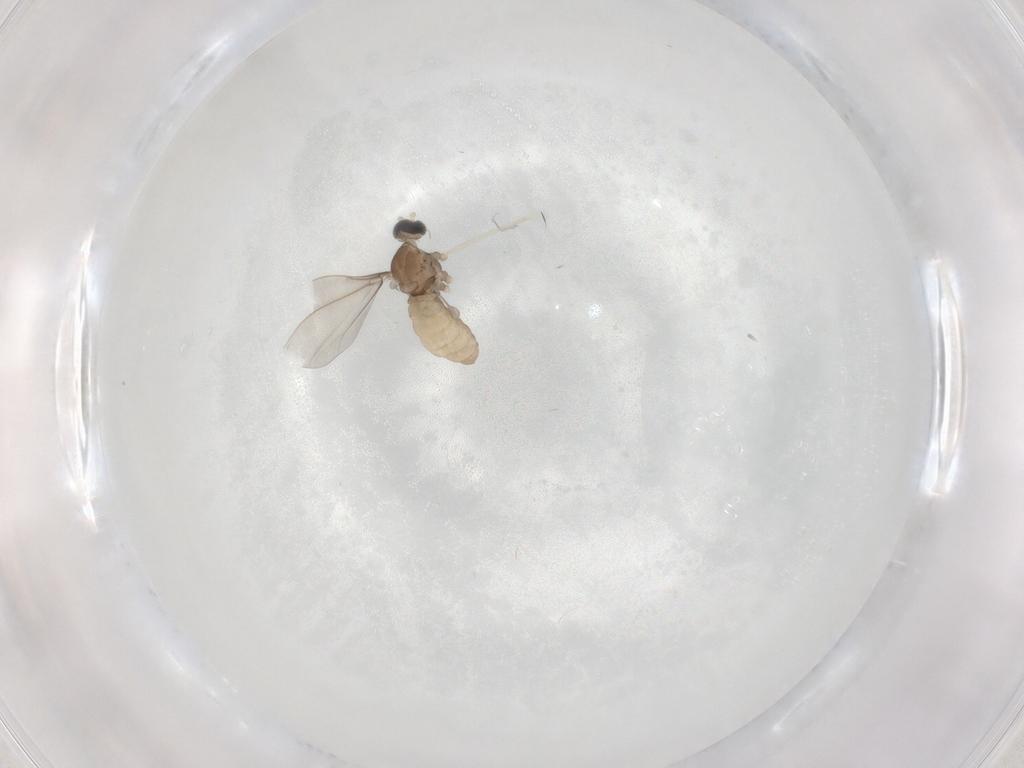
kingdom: Animalia
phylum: Arthropoda
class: Insecta
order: Diptera
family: Cecidomyiidae
